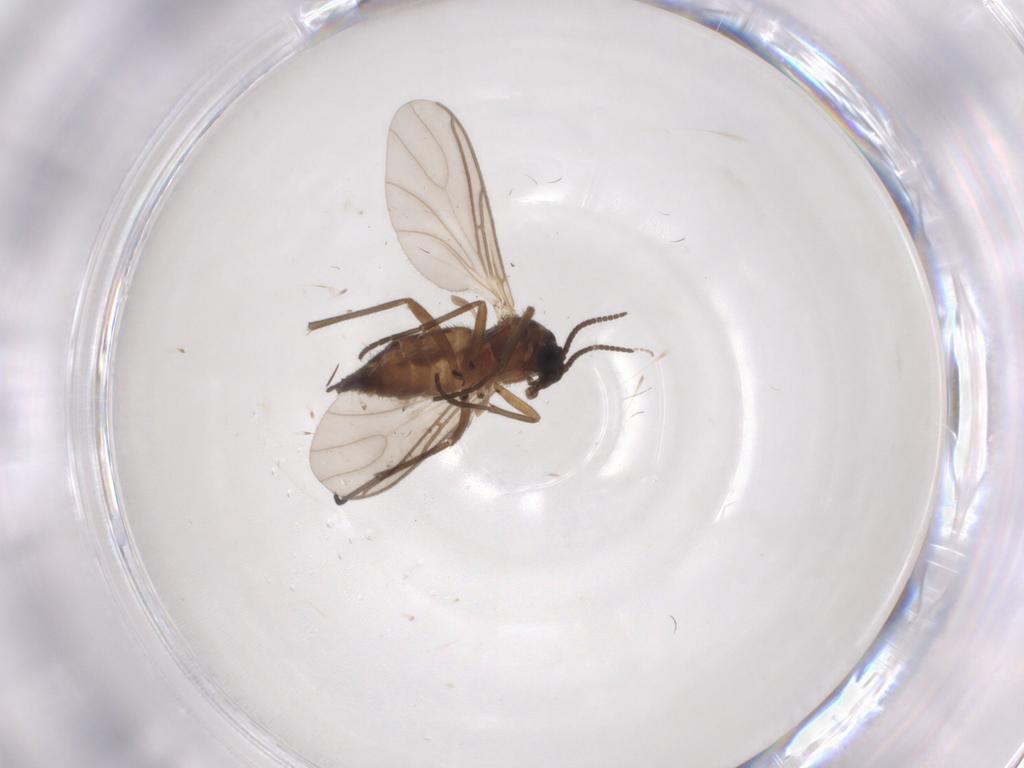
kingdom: Animalia
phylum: Arthropoda
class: Insecta
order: Diptera
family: Sciaridae
